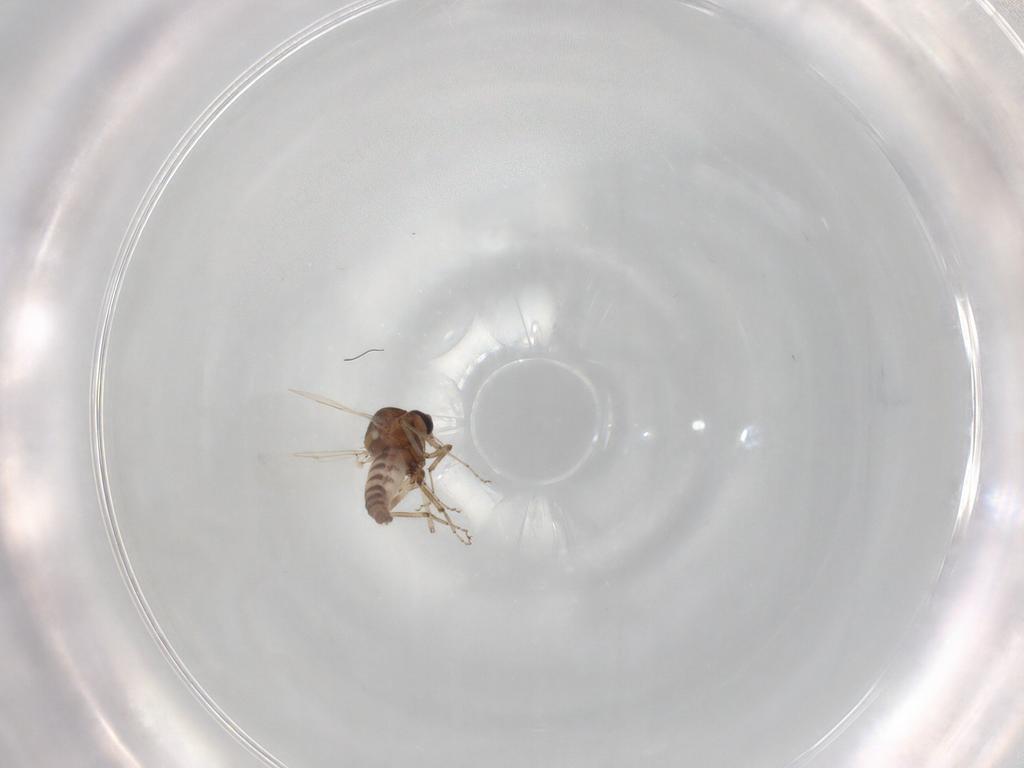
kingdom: Animalia
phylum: Arthropoda
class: Insecta
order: Diptera
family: Ceratopogonidae
